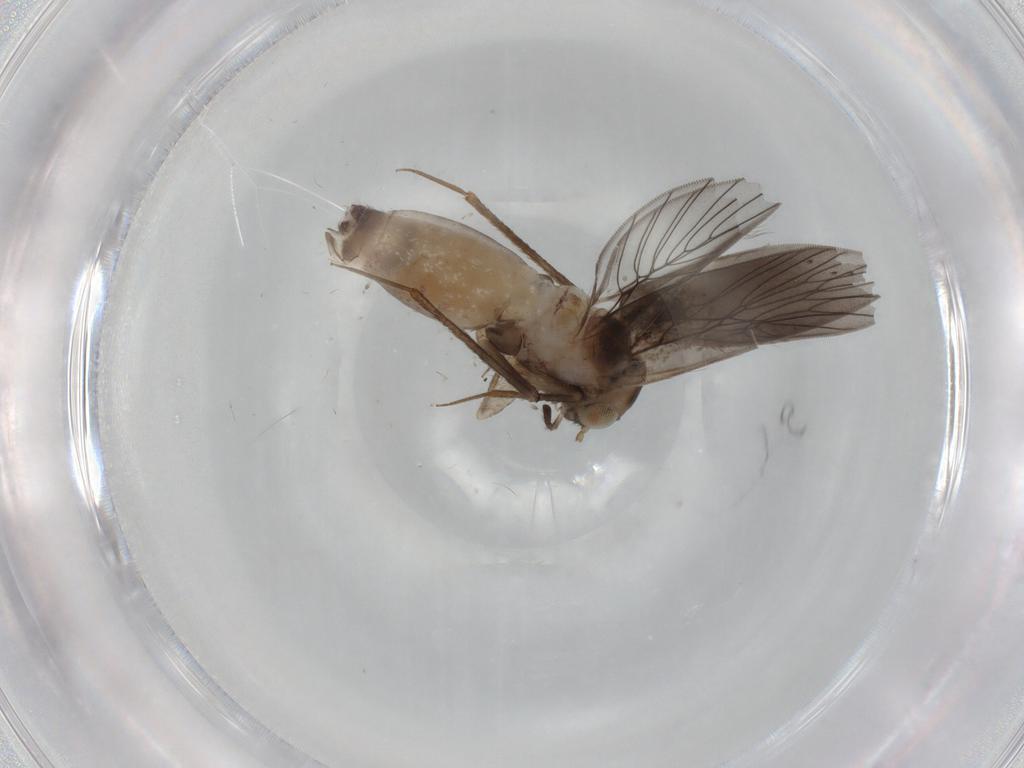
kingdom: Animalia
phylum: Arthropoda
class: Insecta
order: Psocodea
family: Lepidopsocidae
